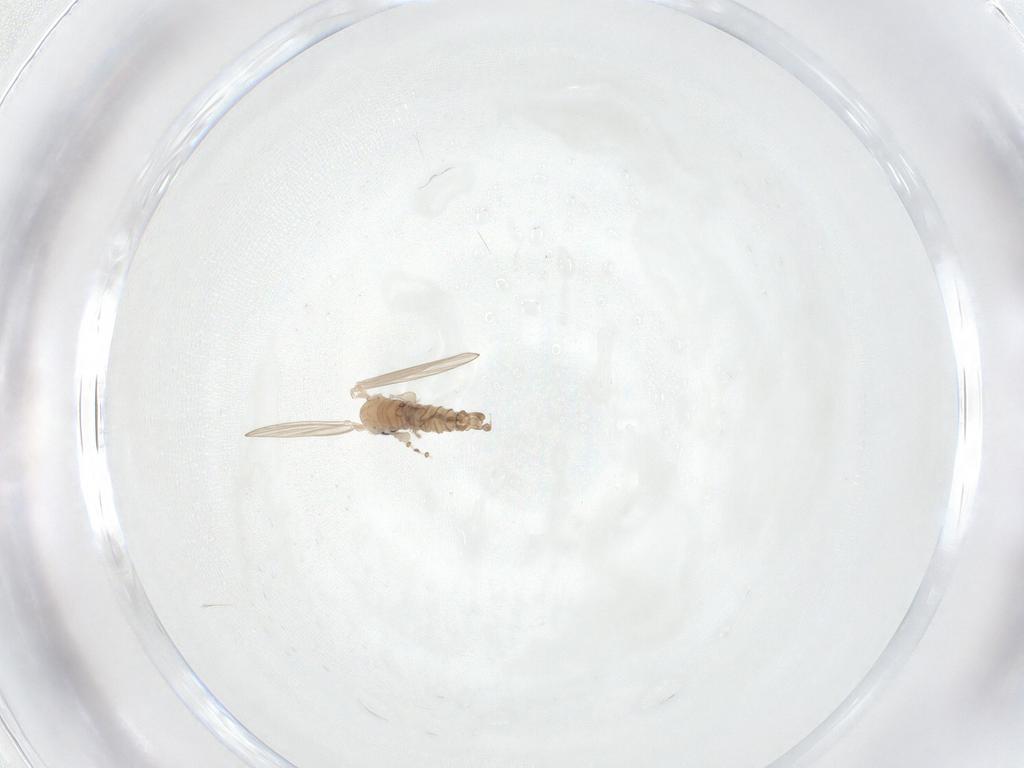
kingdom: Animalia
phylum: Arthropoda
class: Insecta
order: Diptera
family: Psychodidae
